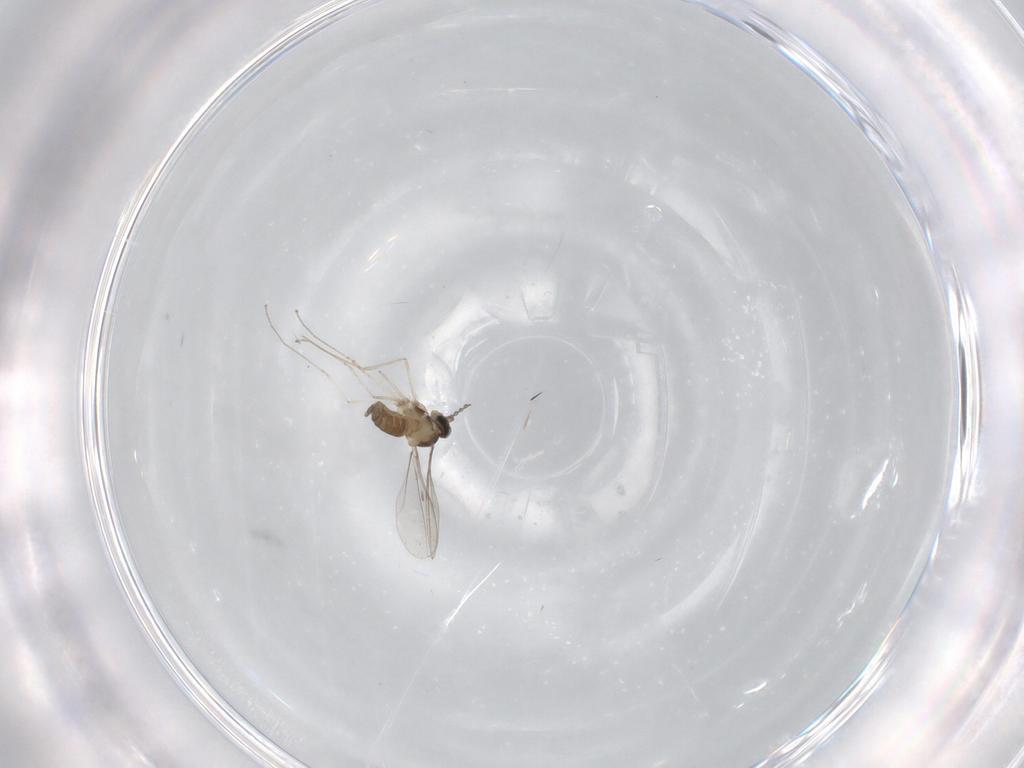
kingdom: Animalia
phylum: Arthropoda
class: Insecta
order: Diptera
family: Cecidomyiidae
